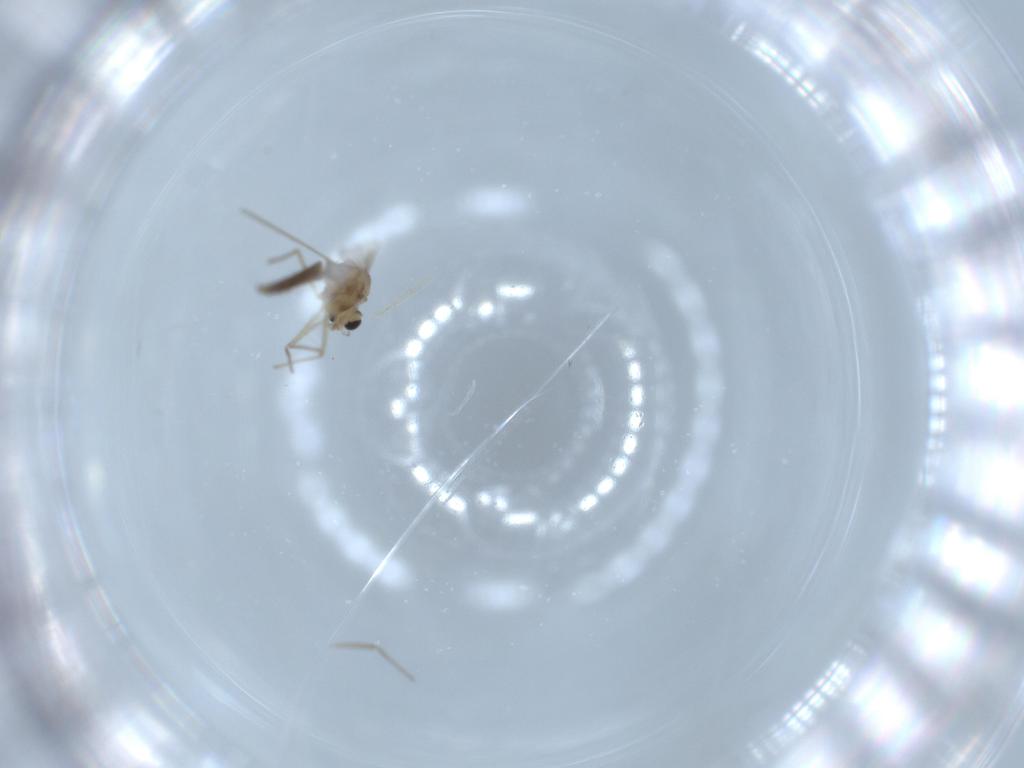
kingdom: Animalia
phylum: Arthropoda
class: Insecta
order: Diptera
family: Chironomidae
